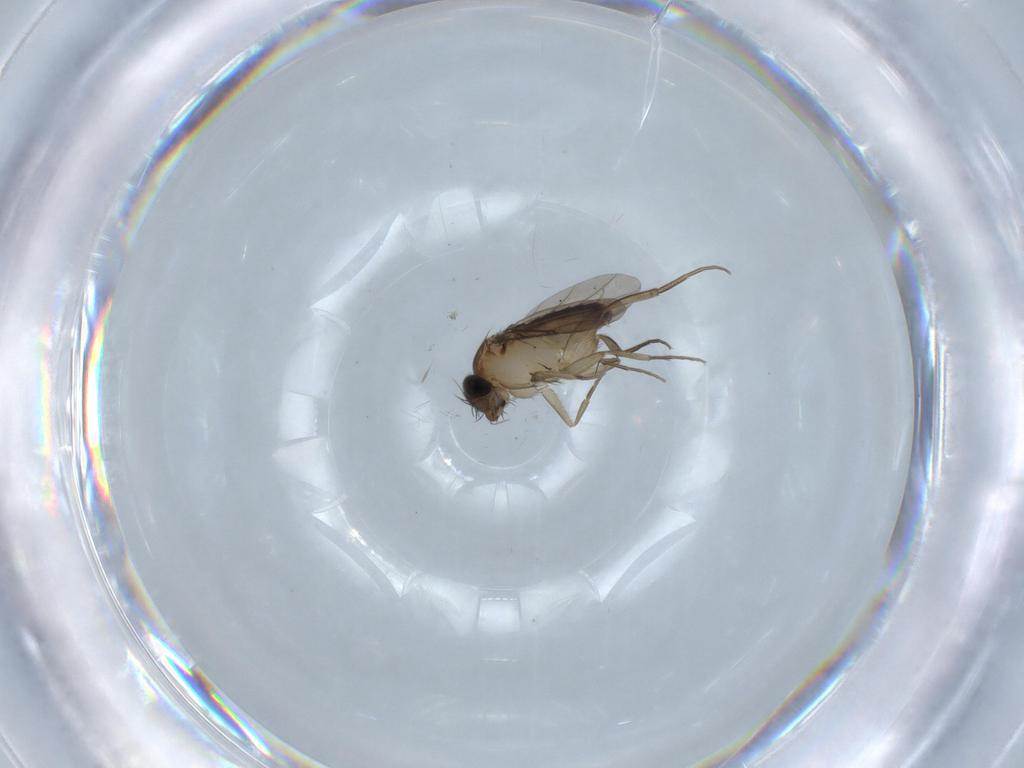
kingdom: Animalia
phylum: Arthropoda
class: Insecta
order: Diptera
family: Phoridae
